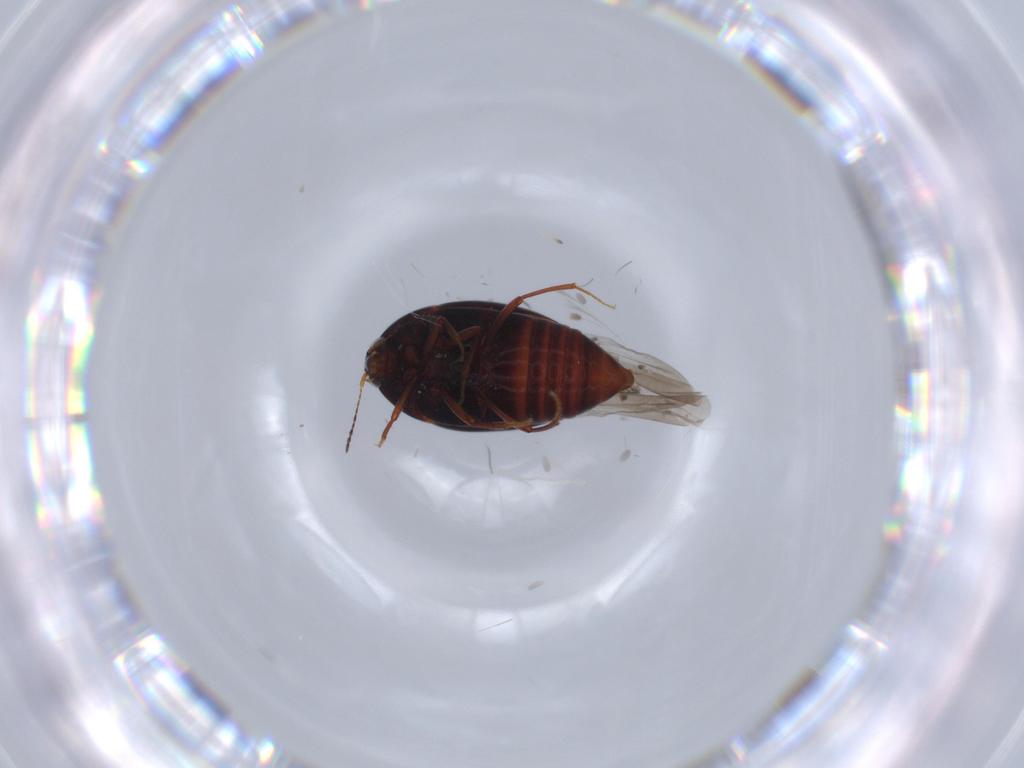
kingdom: Animalia
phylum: Arthropoda
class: Insecta
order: Coleoptera
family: Staphylinidae
